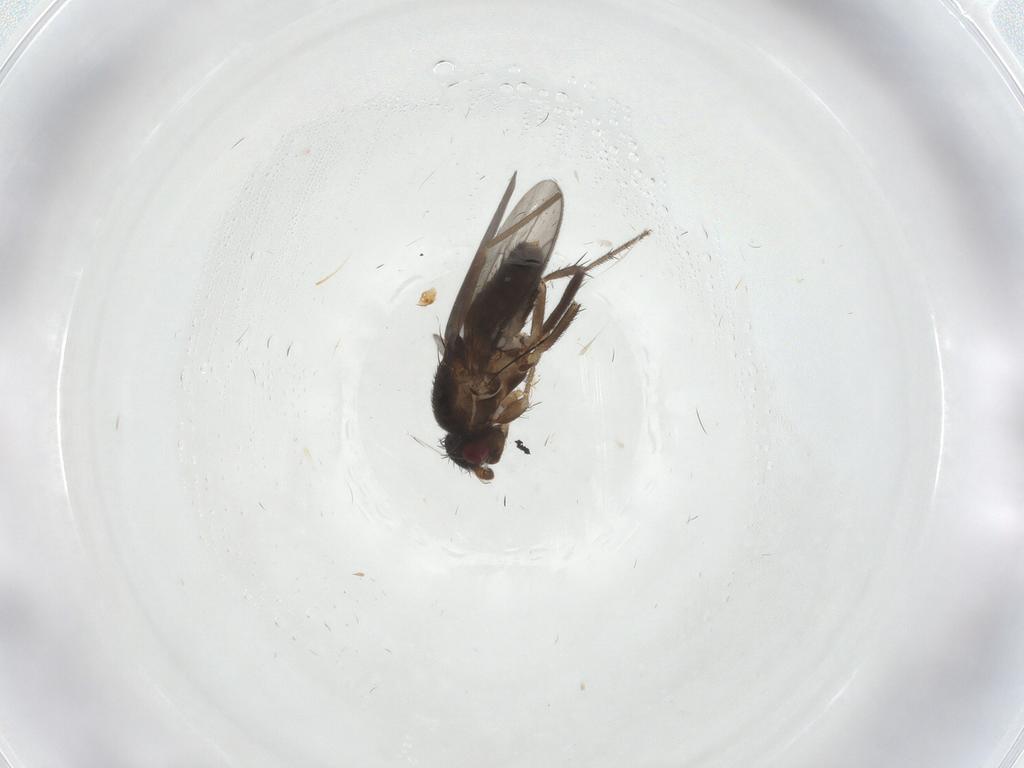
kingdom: Animalia
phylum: Arthropoda
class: Insecta
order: Diptera
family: Sphaeroceridae
